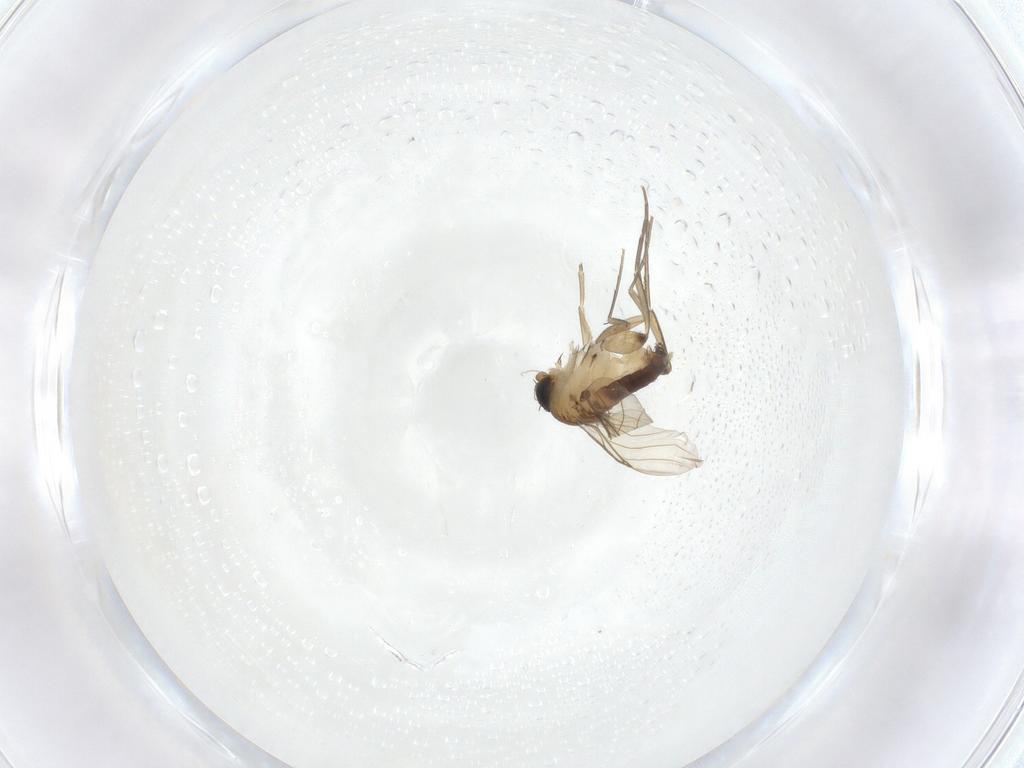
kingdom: Animalia
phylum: Arthropoda
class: Insecta
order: Diptera
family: Phoridae
